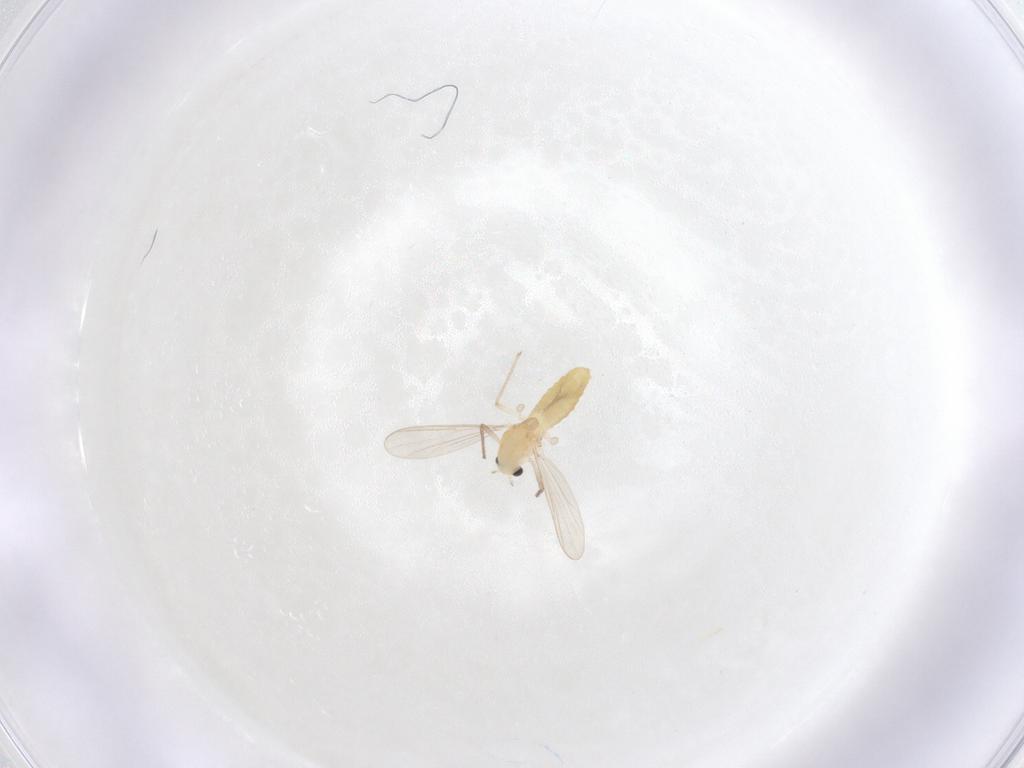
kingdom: Animalia
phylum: Arthropoda
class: Insecta
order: Diptera
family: Chironomidae
